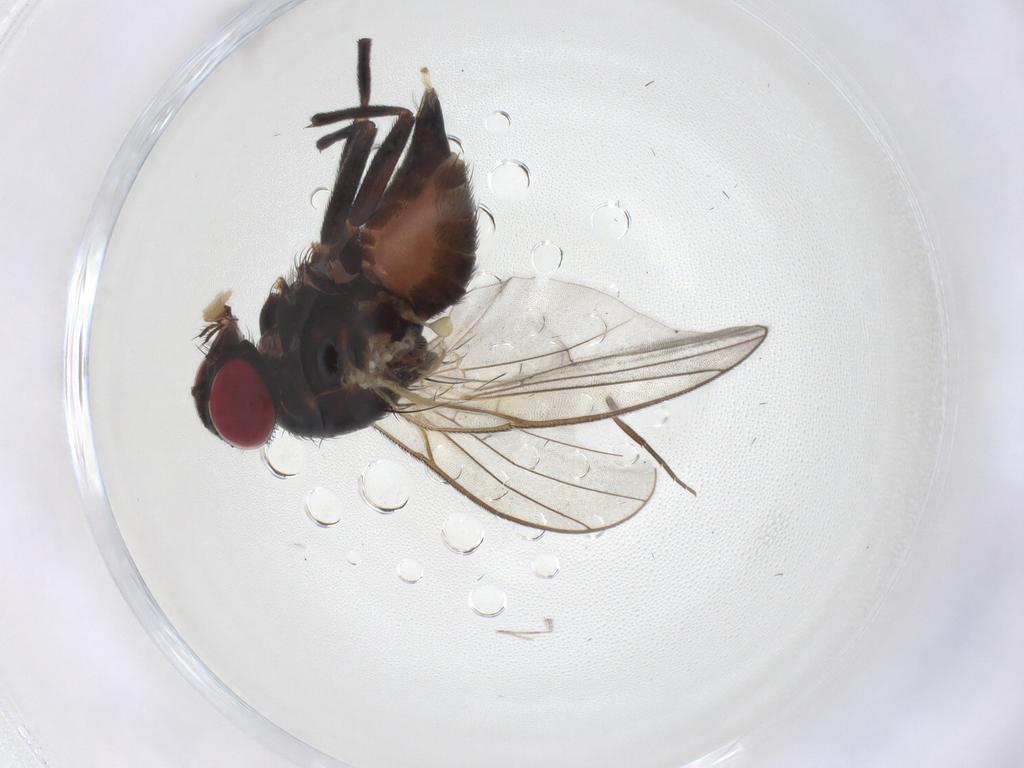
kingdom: Animalia
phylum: Arthropoda
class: Insecta
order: Diptera
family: Agromyzidae
